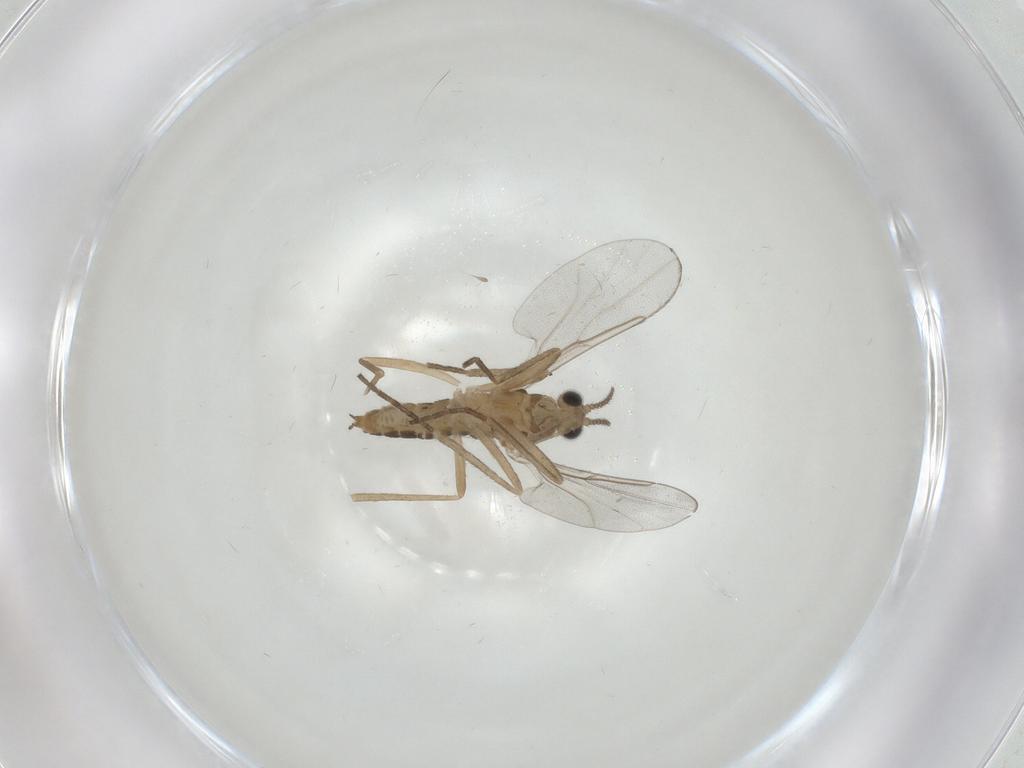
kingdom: Animalia
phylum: Arthropoda
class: Insecta
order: Diptera
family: Cecidomyiidae
